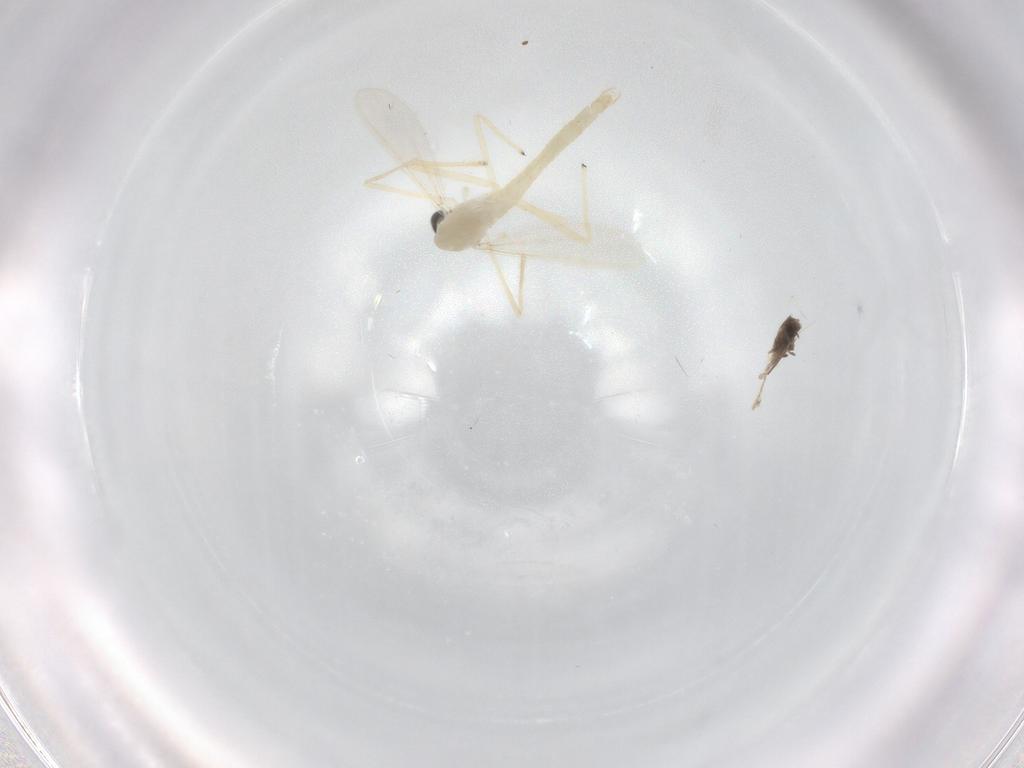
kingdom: Animalia
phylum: Arthropoda
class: Insecta
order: Diptera
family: Chironomidae
